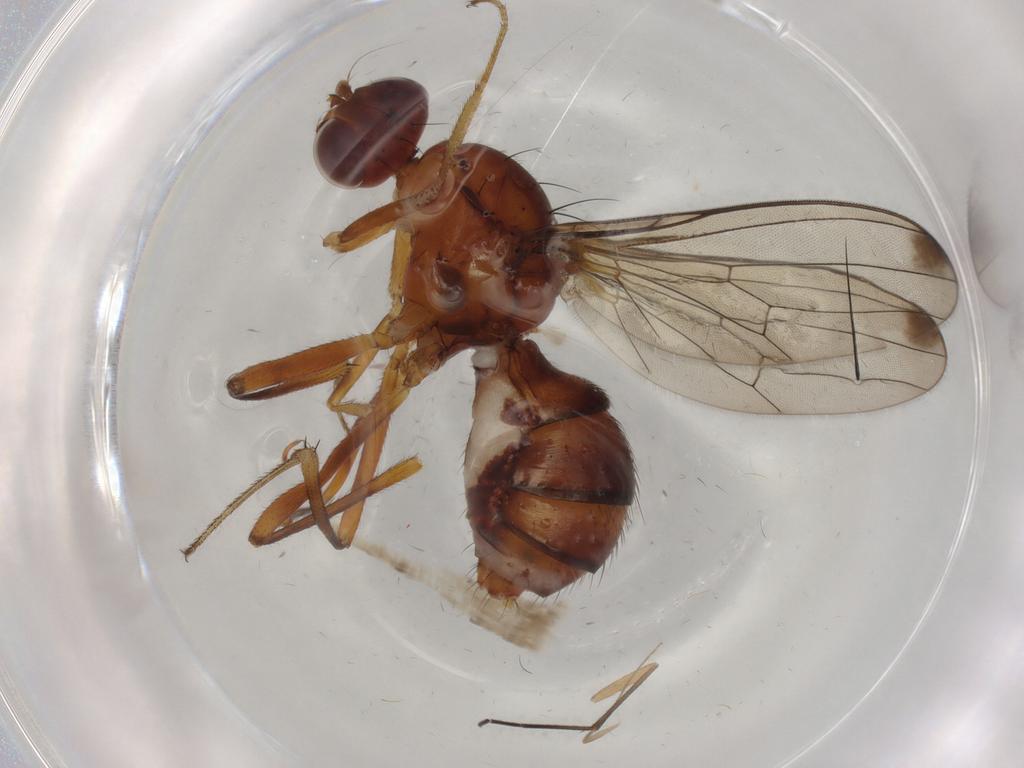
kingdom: Animalia
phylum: Arthropoda
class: Insecta
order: Diptera
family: Sepsidae
